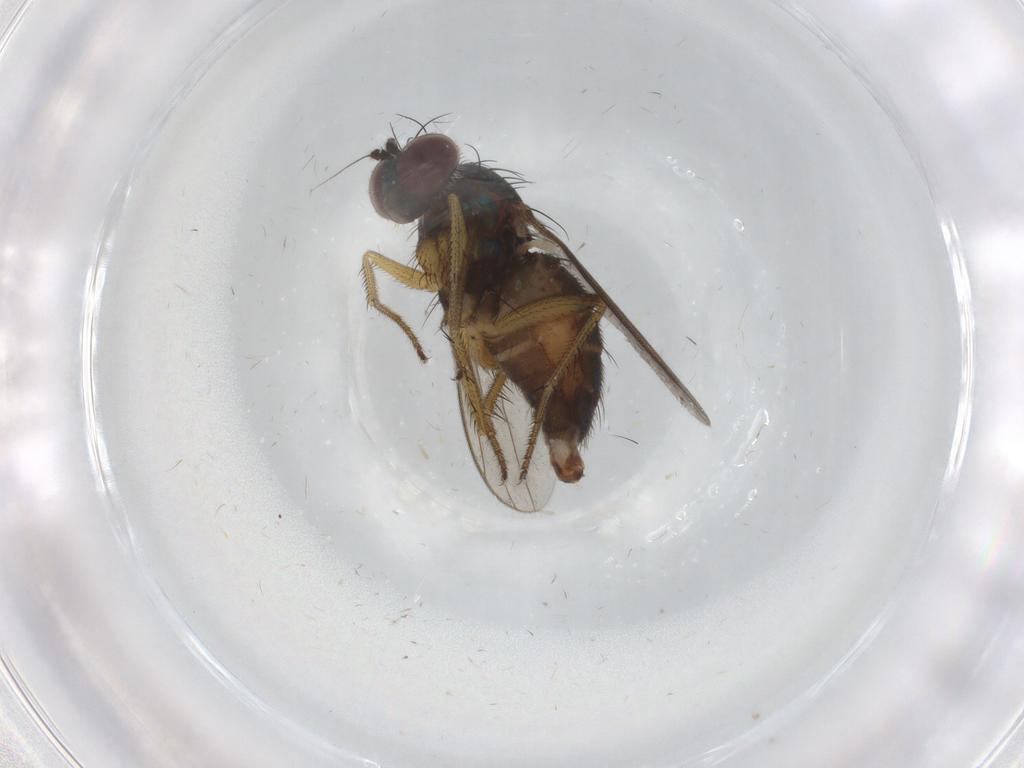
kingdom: Animalia
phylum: Arthropoda
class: Insecta
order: Diptera
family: Dolichopodidae
